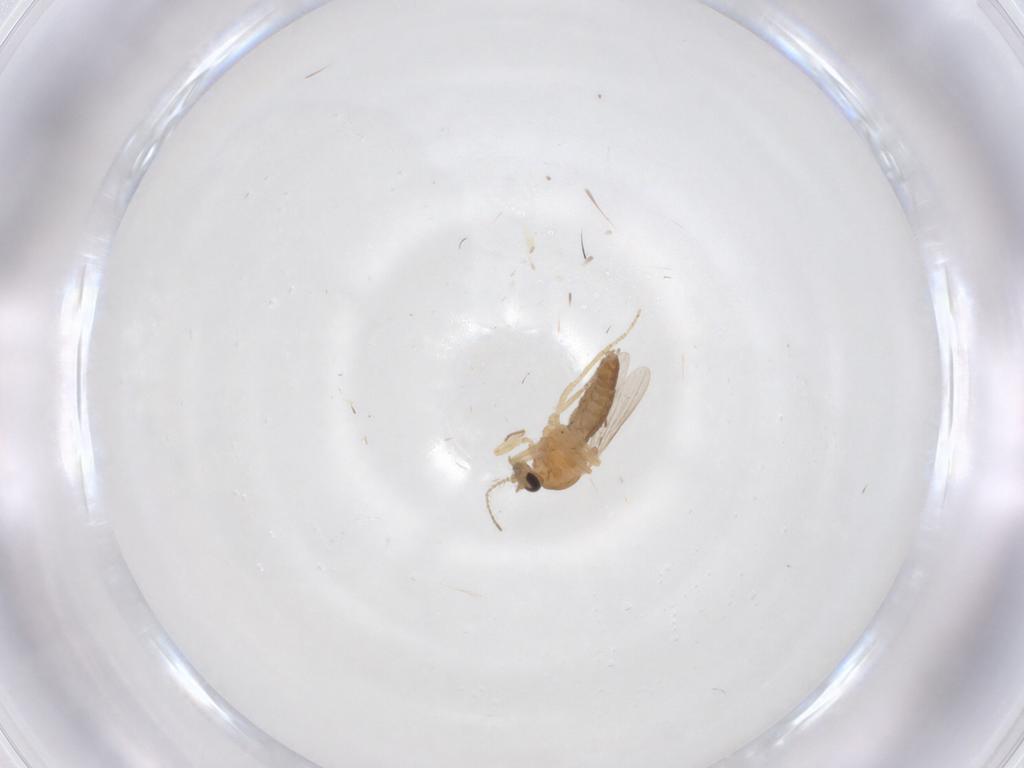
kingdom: Animalia
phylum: Arthropoda
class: Insecta
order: Diptera
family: Ceratopogonidae
